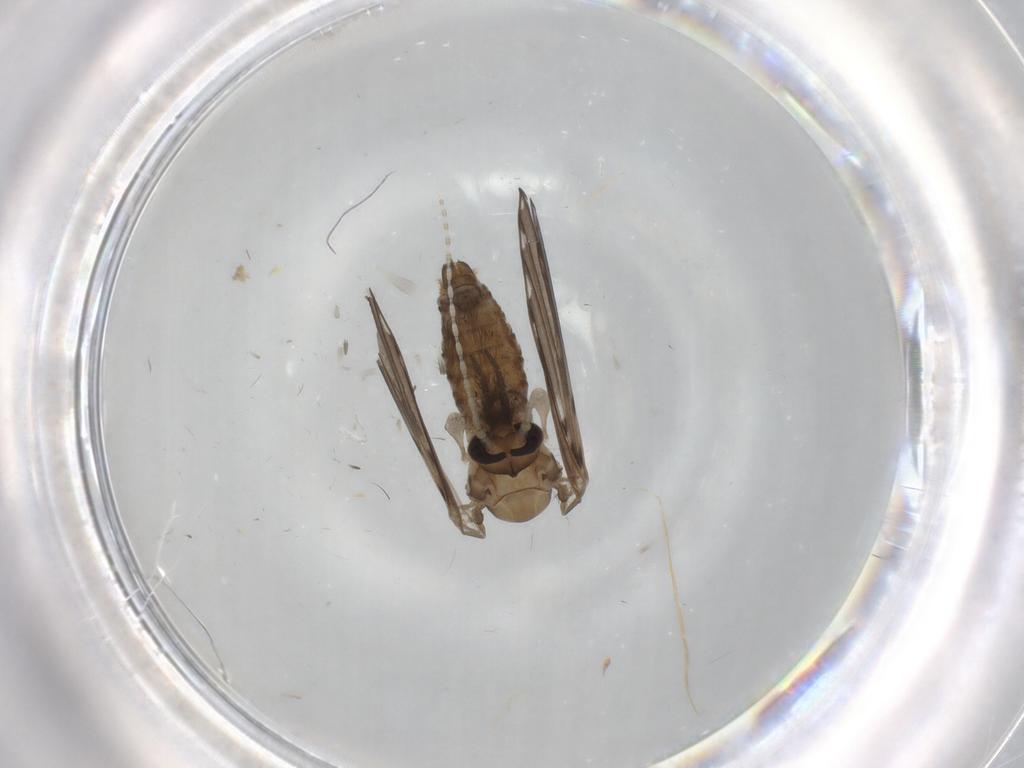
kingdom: Animalia
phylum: Arthropoda
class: Insecta
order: Diptera
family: Psychodidae
